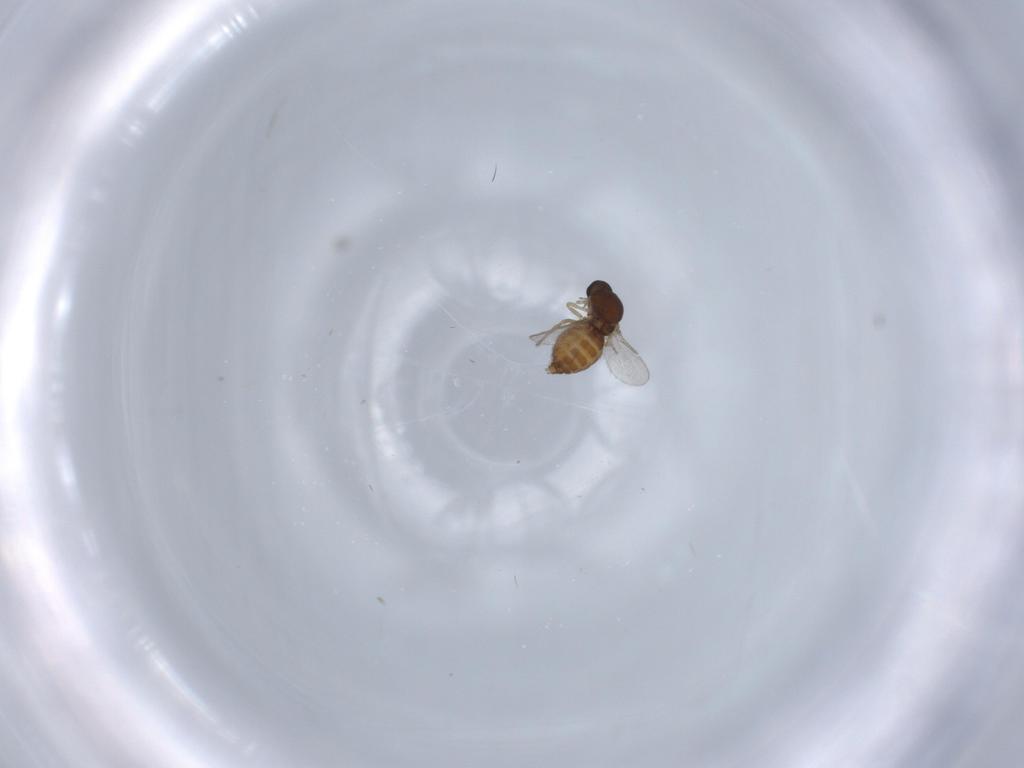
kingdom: Animalia
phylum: Arthropoda
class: Insecta
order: Diptera
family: Ceratopogonidae
